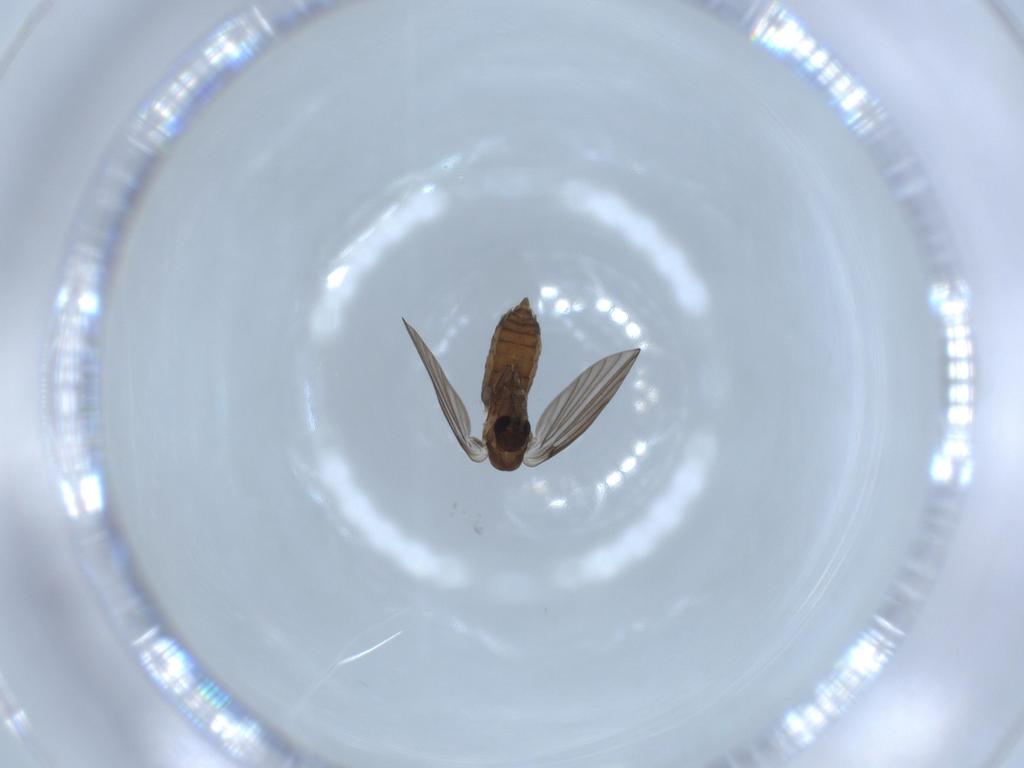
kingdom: Animalia
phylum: Arthropoda
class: Insecta
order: Diptera
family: Psychodidae
